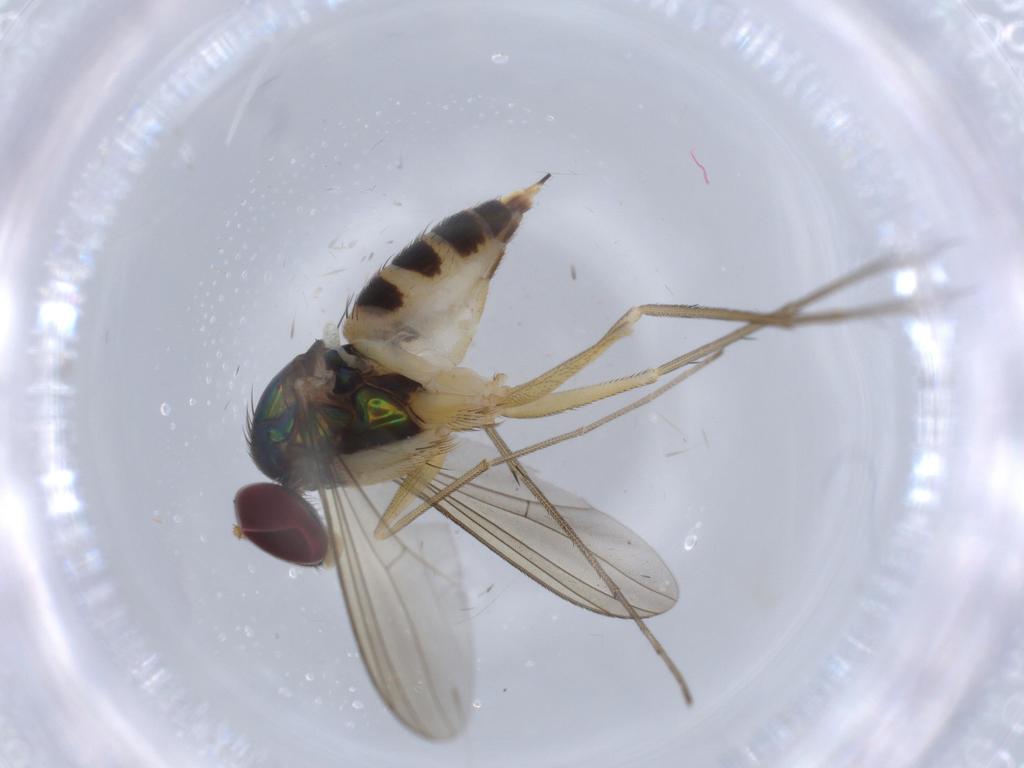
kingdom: Animalia
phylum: Arthropoda
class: Insecta
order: Diptera
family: Dolichopodidae
